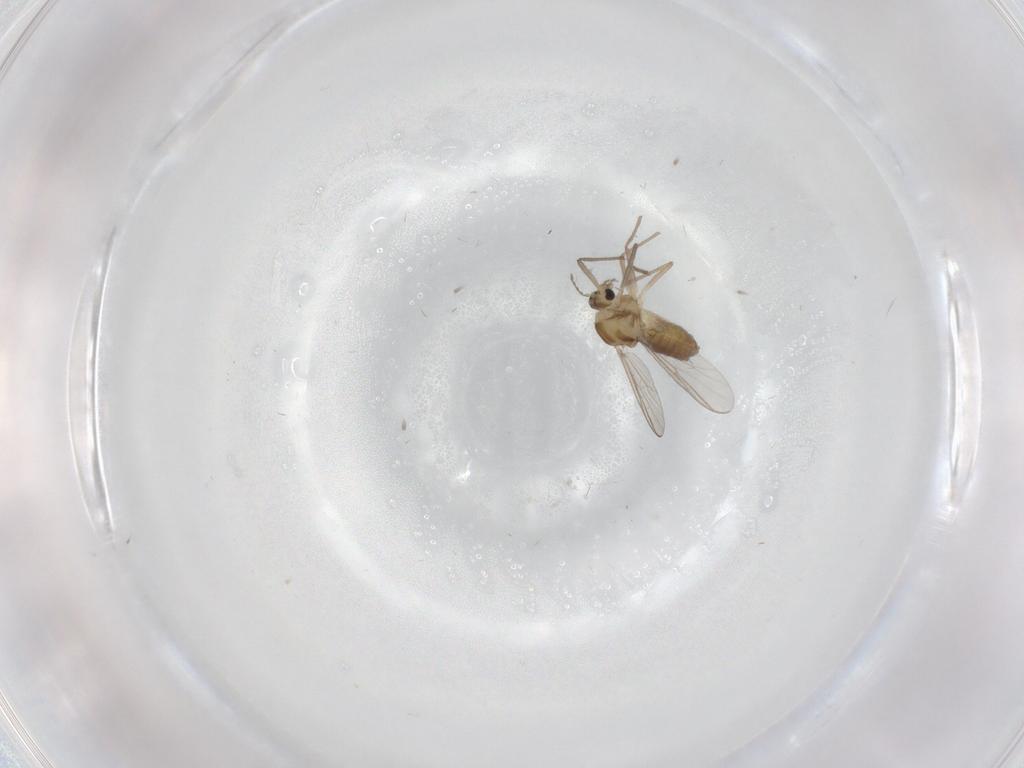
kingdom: Animalia
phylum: Arthropoda
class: Insecta
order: Diptera
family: Chironomidae
